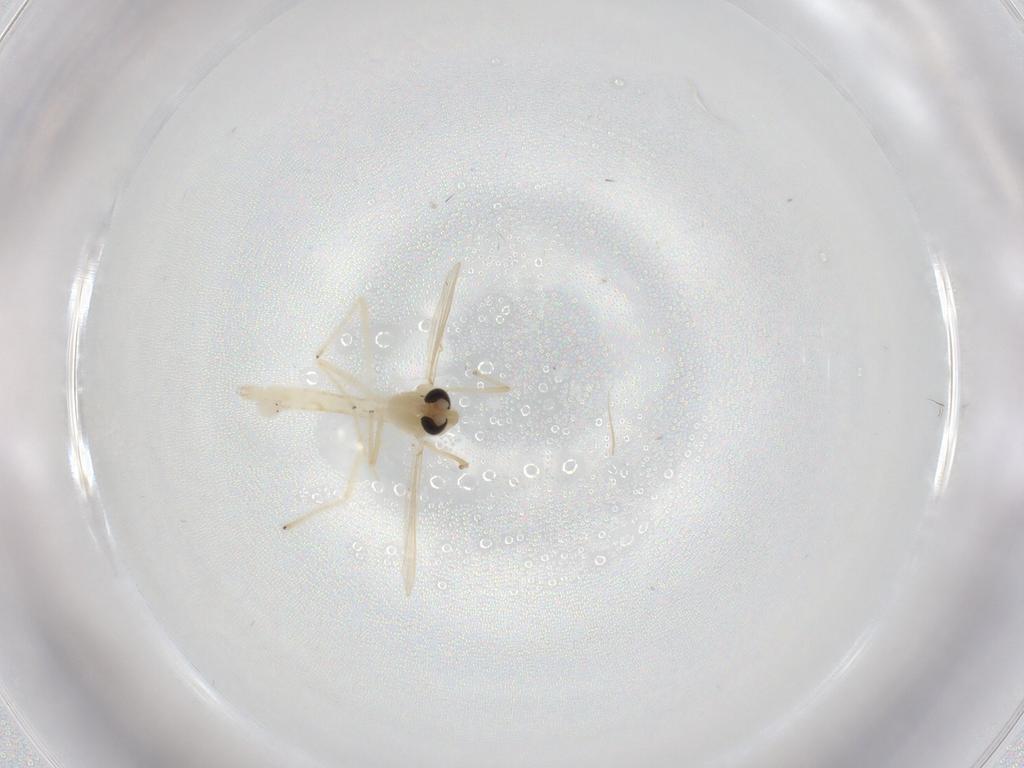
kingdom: Animalia
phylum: Arthropoda
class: Insecta
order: Diptera
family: Chironomidae
